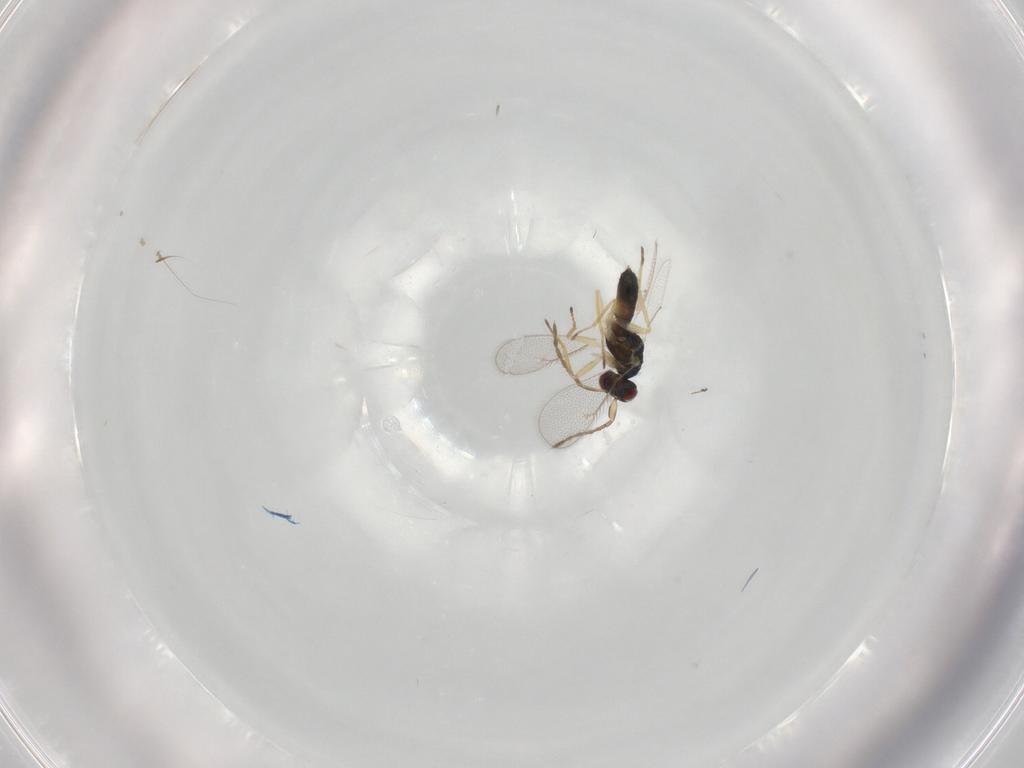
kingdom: Animalia
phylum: Arthropoda
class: Insecta
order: Hymenoptera
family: Eulophidae
